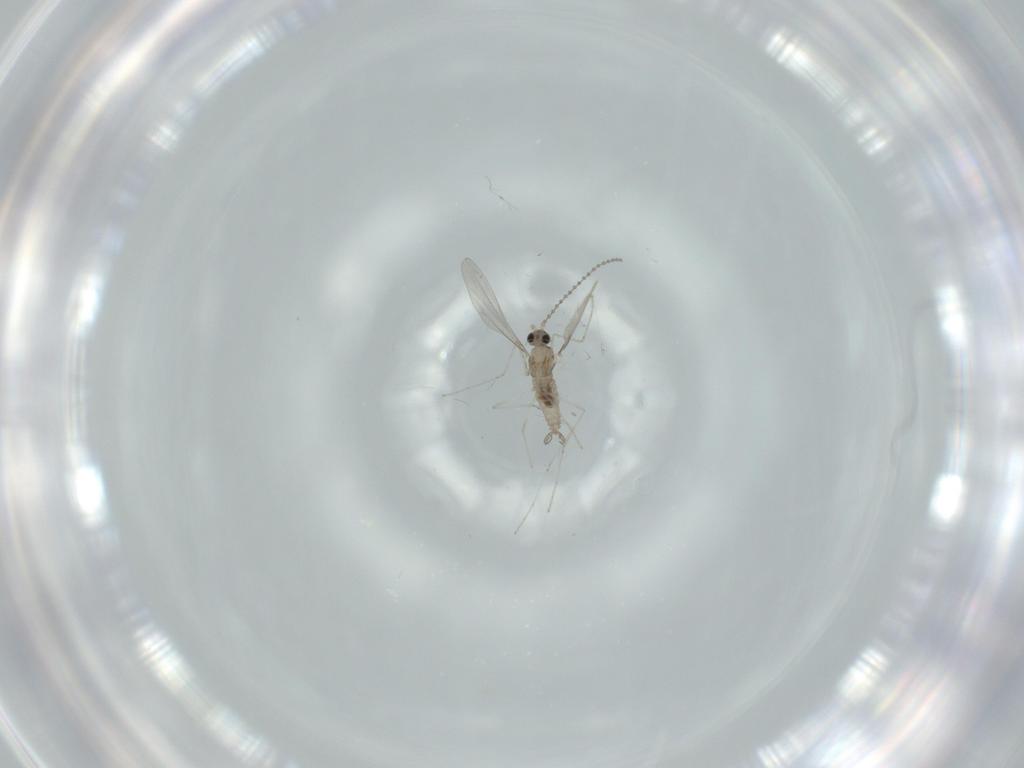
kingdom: Animalia
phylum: Arthropoda
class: Insecta
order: Diptera
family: Cecidomyiidae
